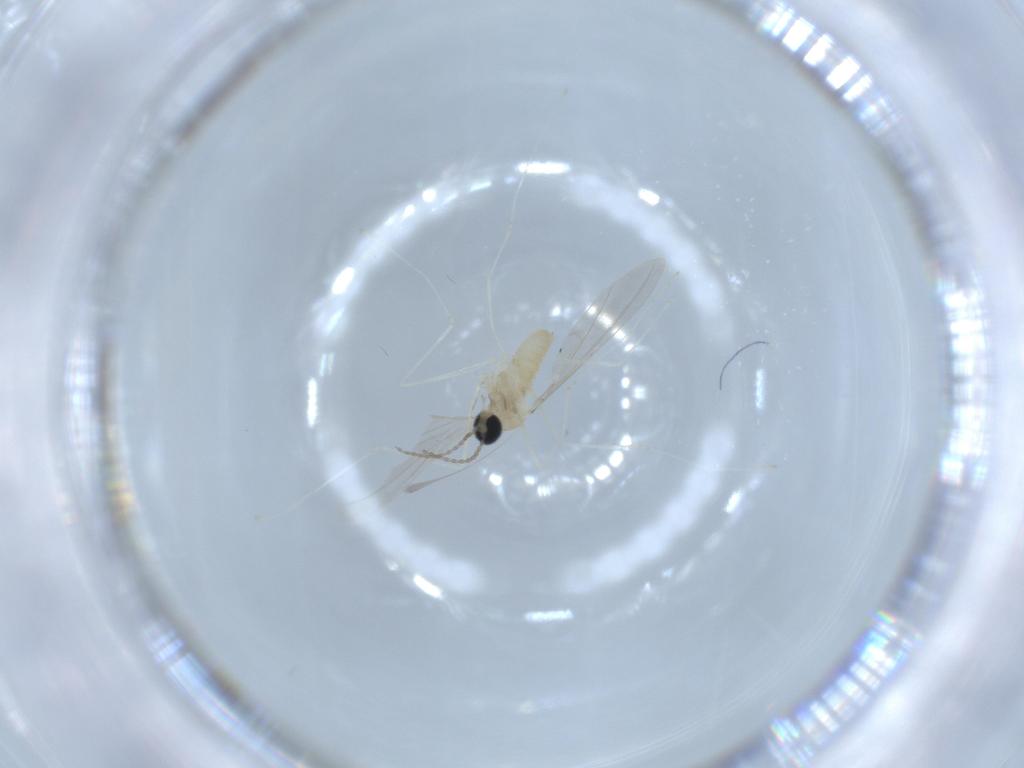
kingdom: Animalia
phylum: Arthropoda
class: Insecta
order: Diptera
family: Cecidomyiidae
